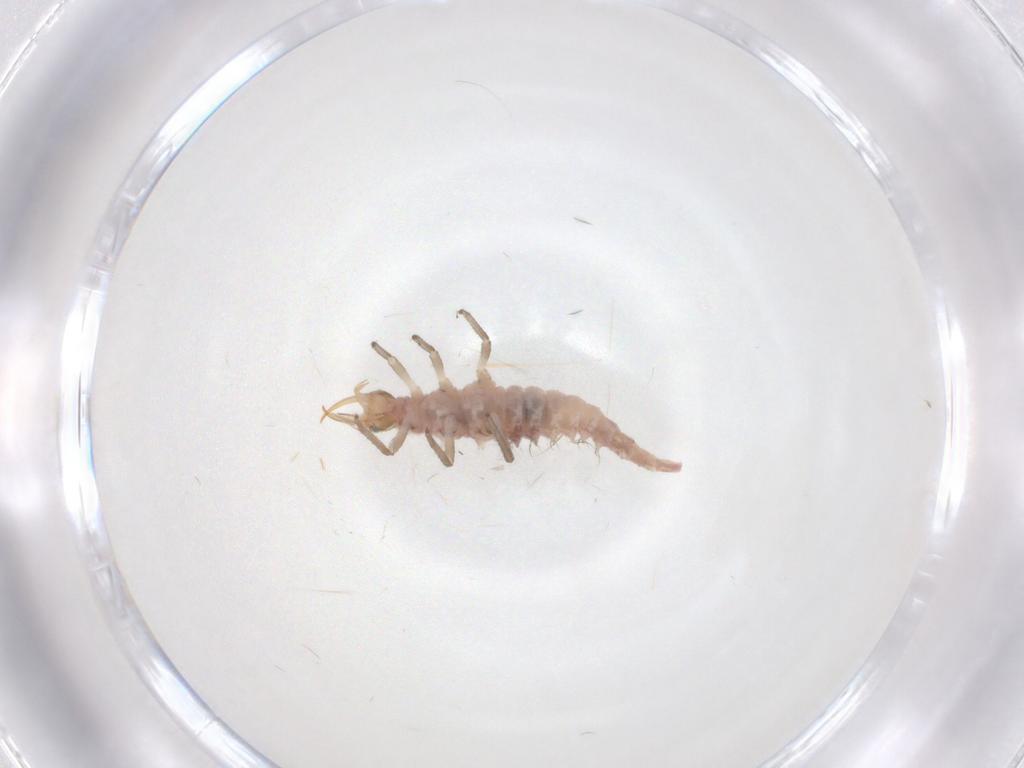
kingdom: Animalia
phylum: Arthropoda
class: Insecta
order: Neuroptera
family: Chrysopidae
